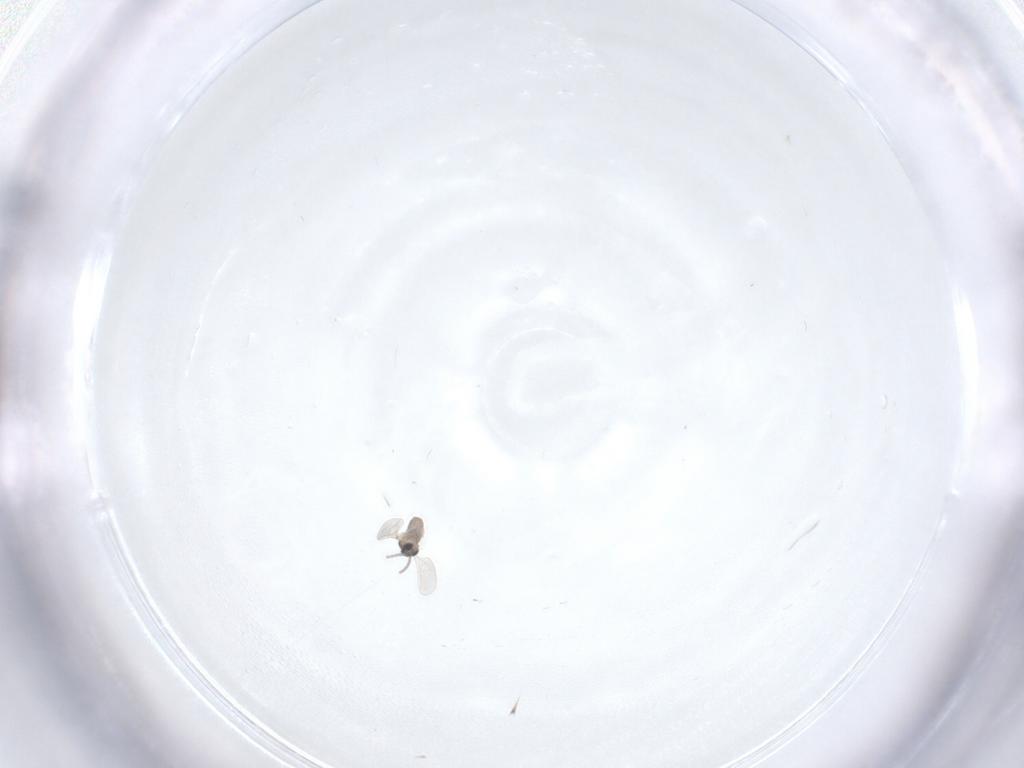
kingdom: Animalia
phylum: Arthropoda
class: Insecta
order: Diptera
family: Cecidomyiidae
